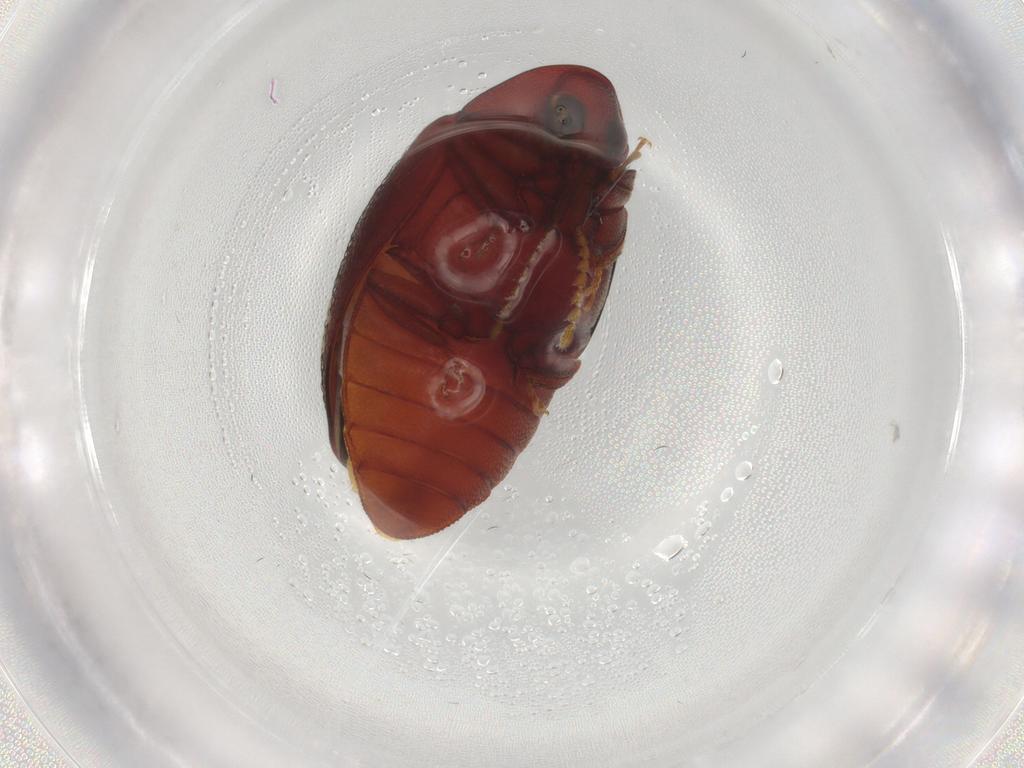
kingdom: Animalia
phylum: Arthropoda
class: Insecta
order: Coleoptera
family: Chelonariidae
